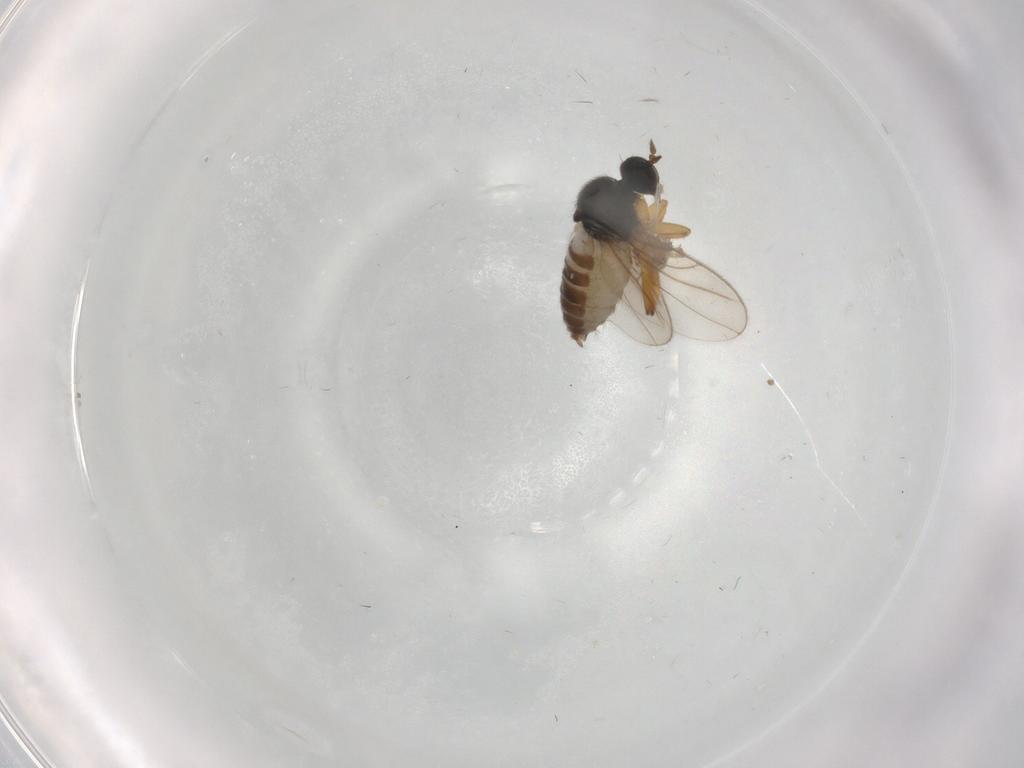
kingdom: Animalia
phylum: Arthropoda
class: Insecta
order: Diptera
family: Hybotidae
